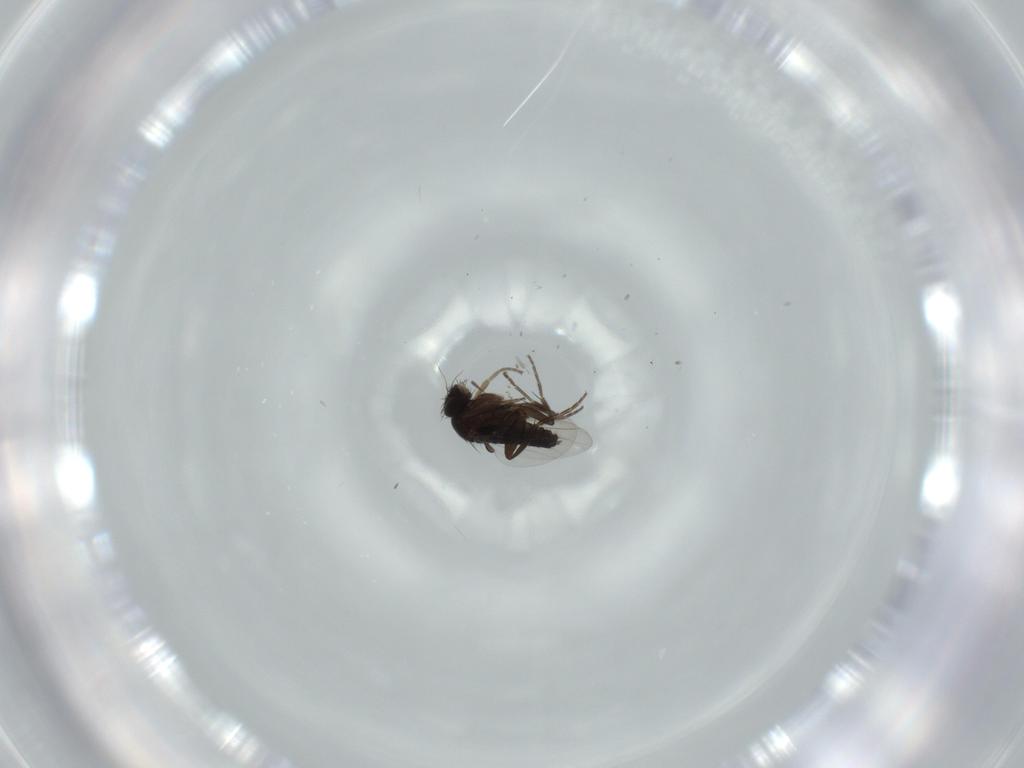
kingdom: Animalia
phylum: Arthropoda
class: Insecta
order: Diptera
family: Phoridae
